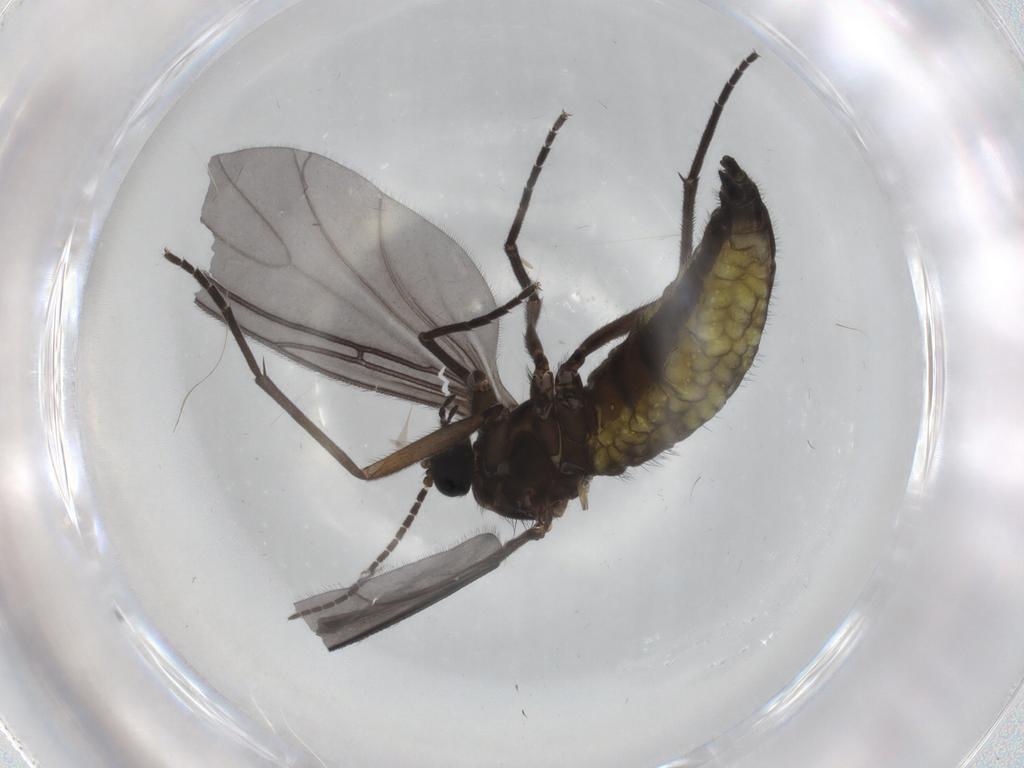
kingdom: Animalia
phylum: Arthropoda
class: Insecta
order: Diptera
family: Sciaridae
